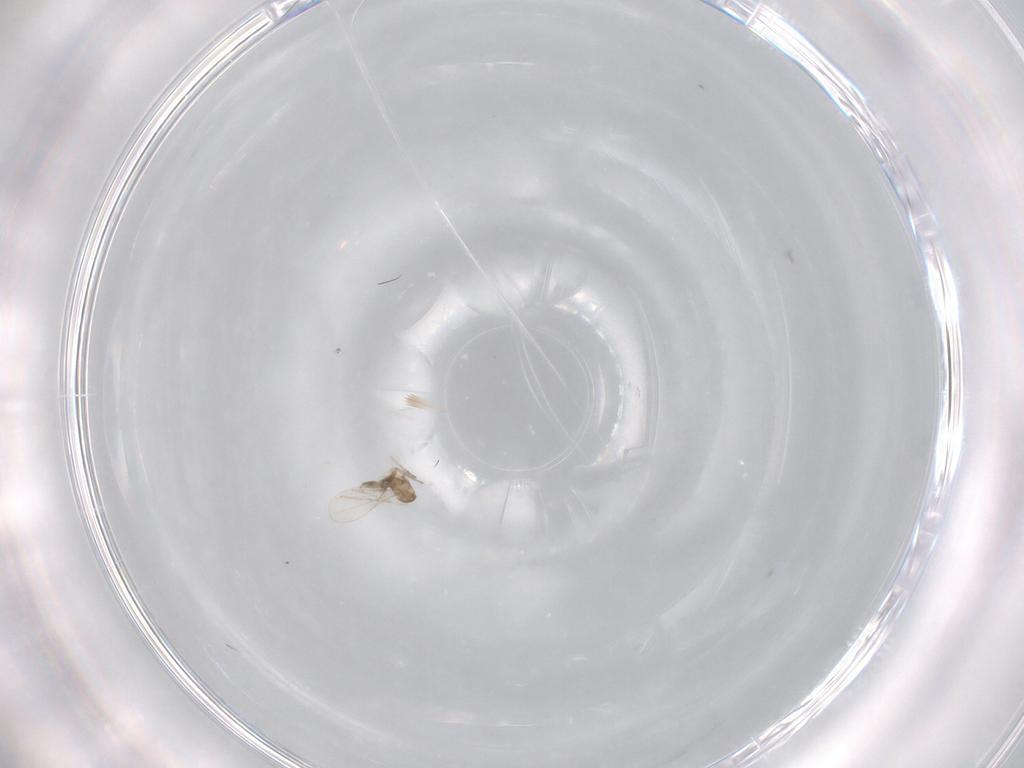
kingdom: Animalia
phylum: Arthropoda
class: Insecta
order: Diptera
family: Cecidomyiidae
